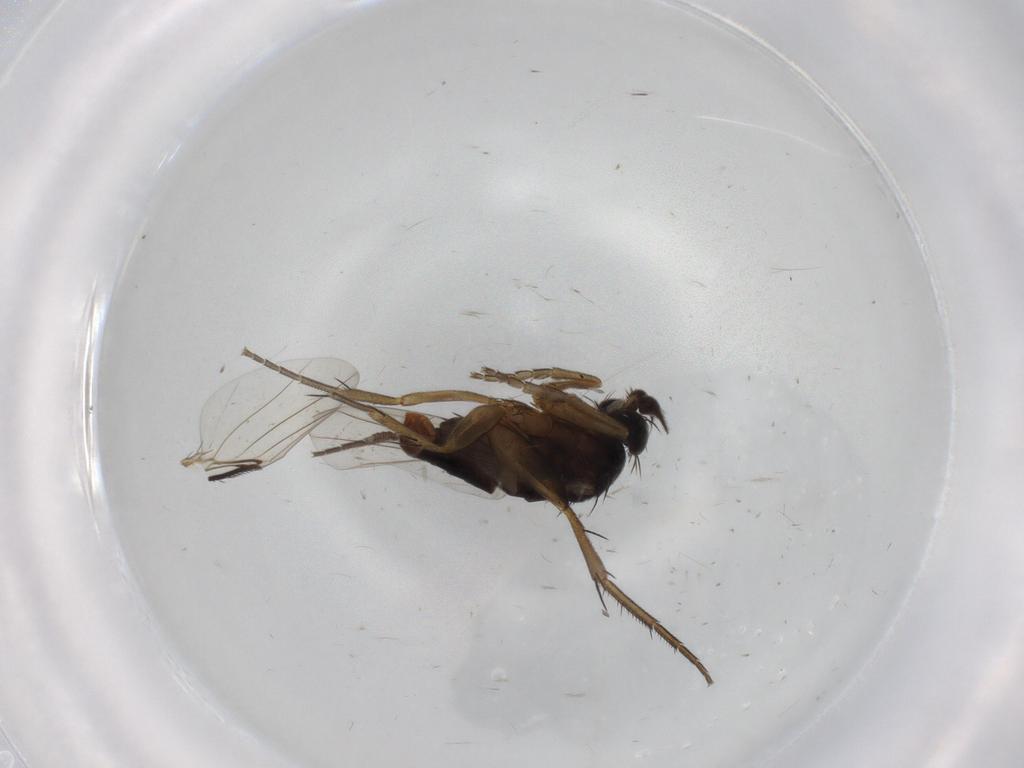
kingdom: Animalia
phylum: Arthropoda
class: Insecta
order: Diptera
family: Phoridae
